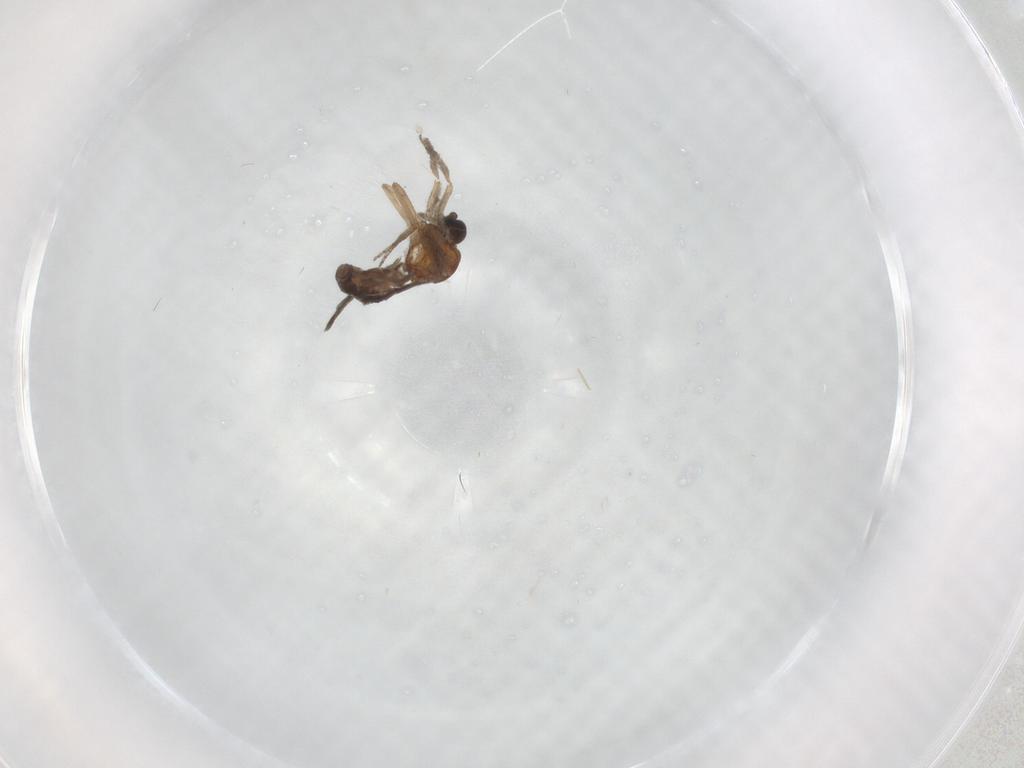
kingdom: Animalia
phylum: Arthropoda
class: Insecta
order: Diptera
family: Ceratopogonidae
